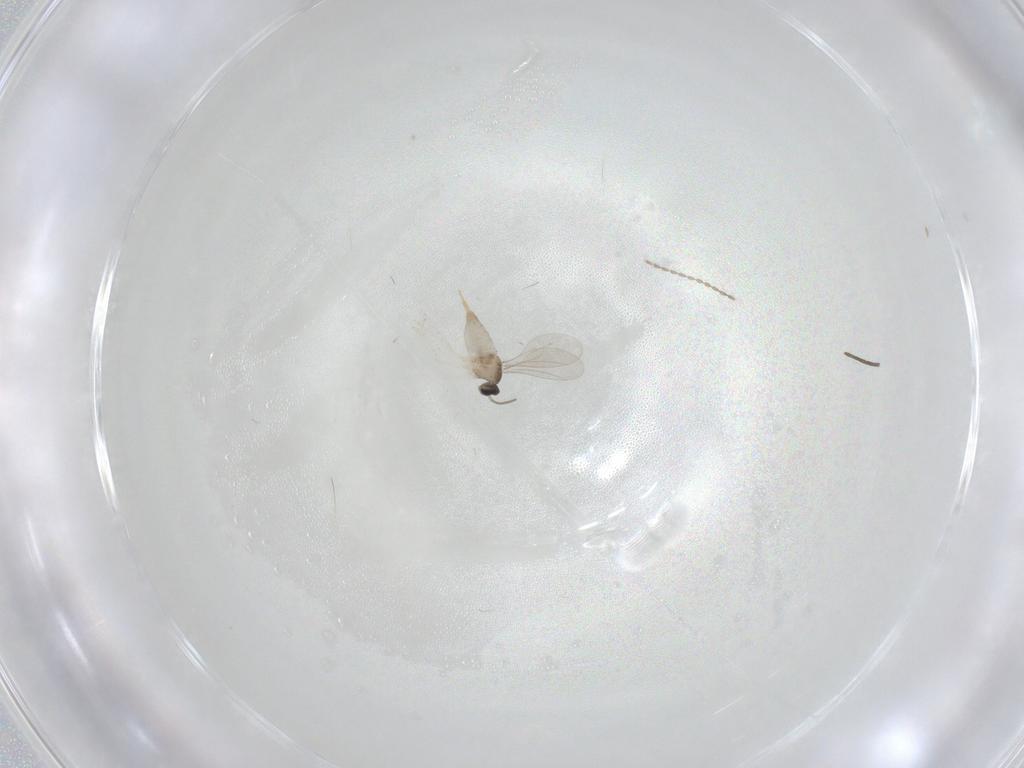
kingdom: Animalia
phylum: Arthropoda
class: Insecta
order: Diptera
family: Cecidomyiidae
